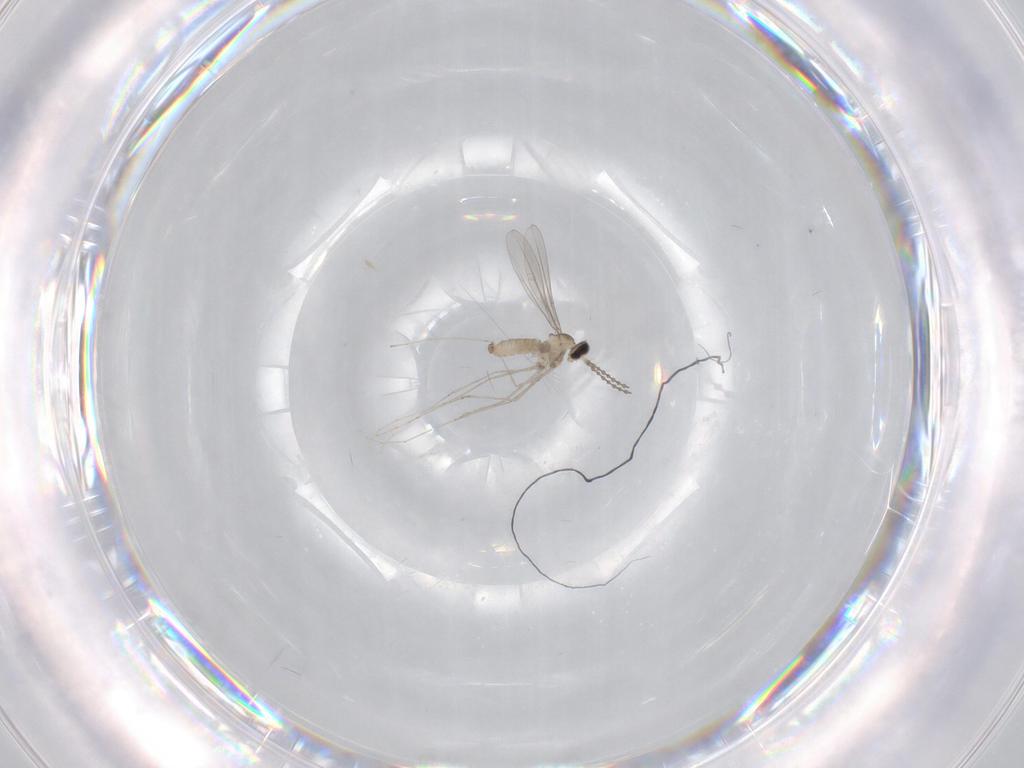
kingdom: Animalia
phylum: Arthropoda
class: Insecta
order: Diptera
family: Cecidomyiidae
